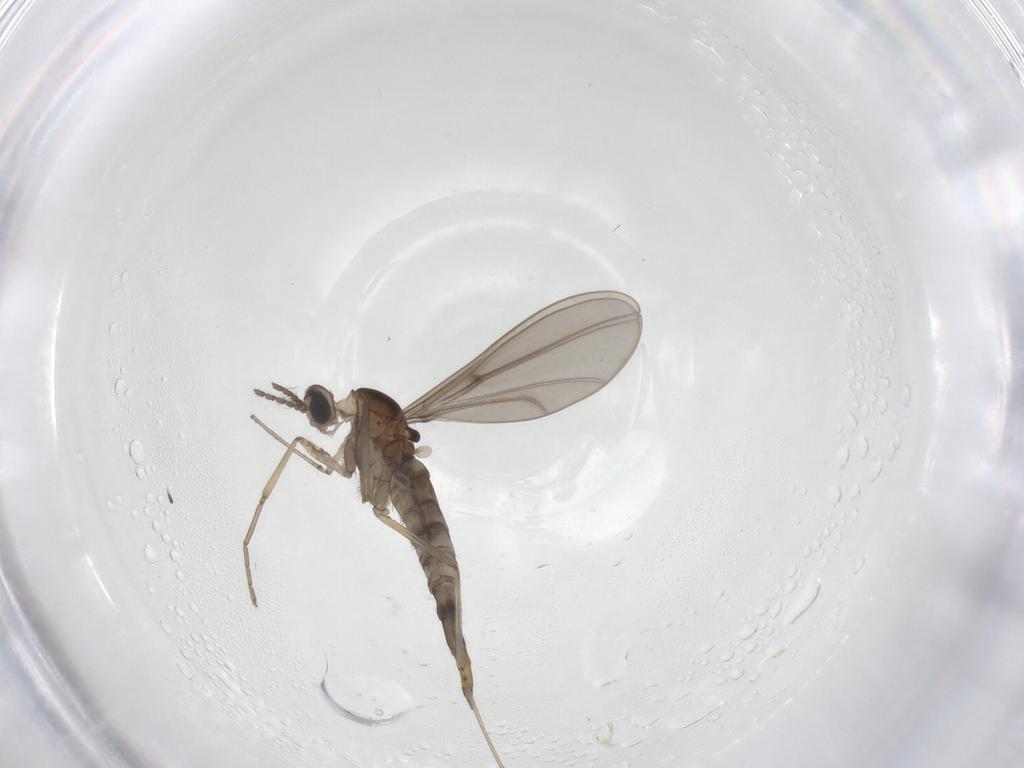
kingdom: Animalia
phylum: Arthropoda
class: Insecta
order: Diptera
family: Cecidomyiidae
